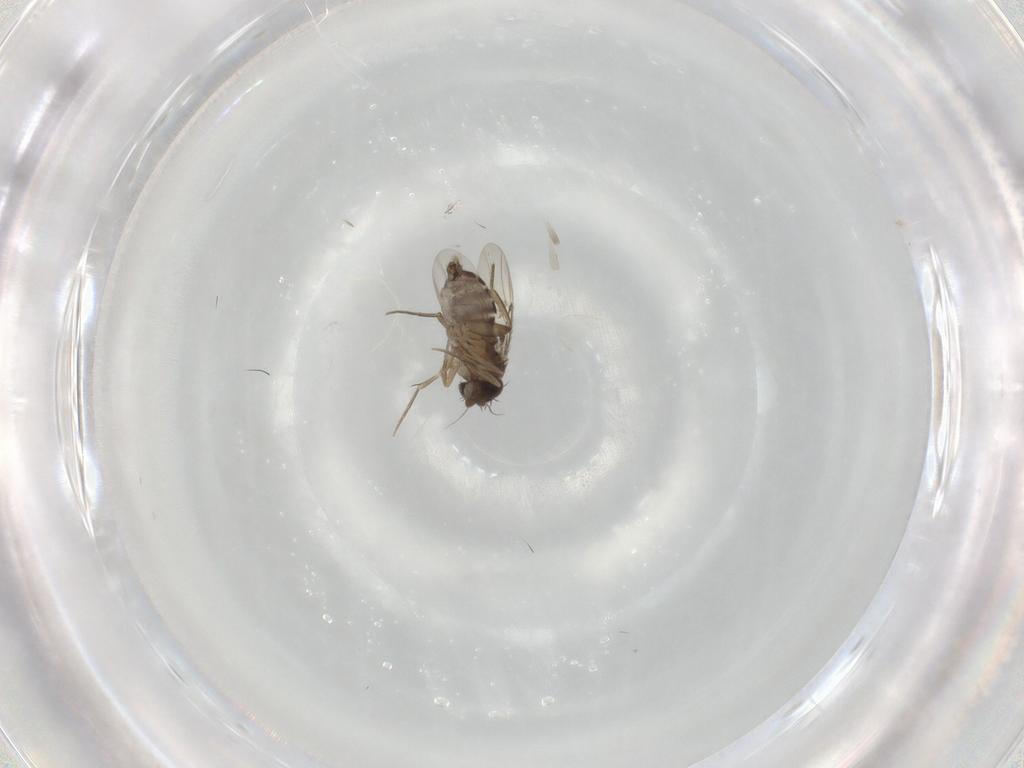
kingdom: Animalia
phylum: Arthropoda
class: Insecta
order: Diptera
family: Phoridae
